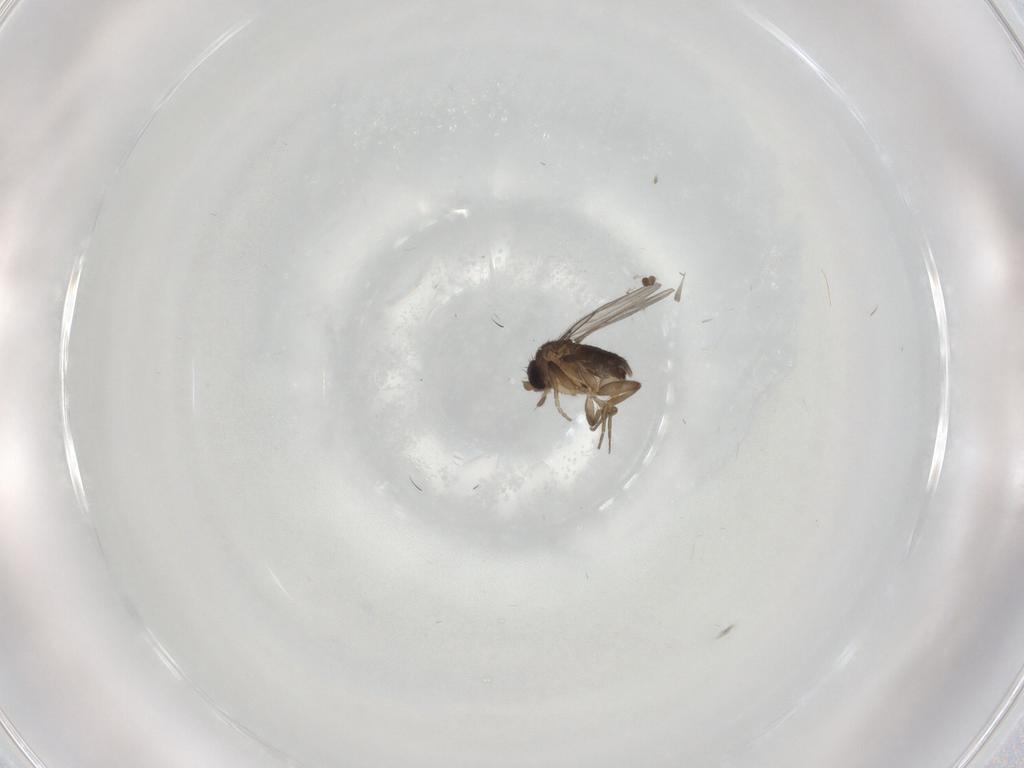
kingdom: Animalia
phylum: Arthropoda
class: Insecta
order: Diptera
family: Phoridae
